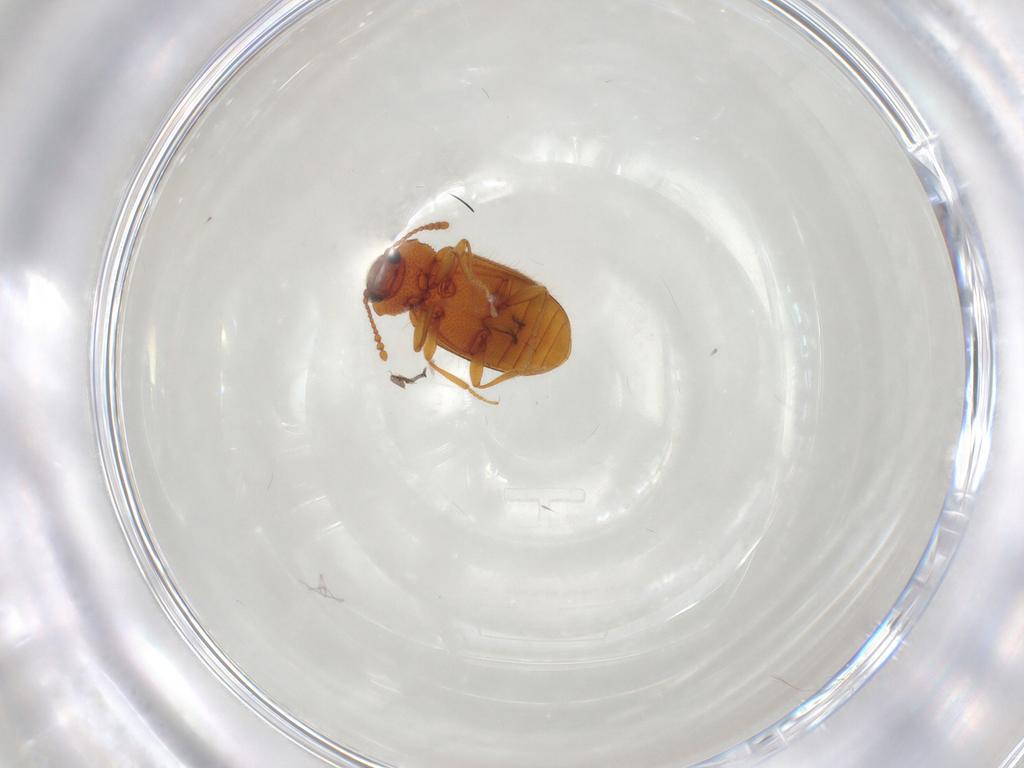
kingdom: Animalia
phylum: Arthropoda
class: Insecta
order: Coleoptera
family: Cryptophagidae
